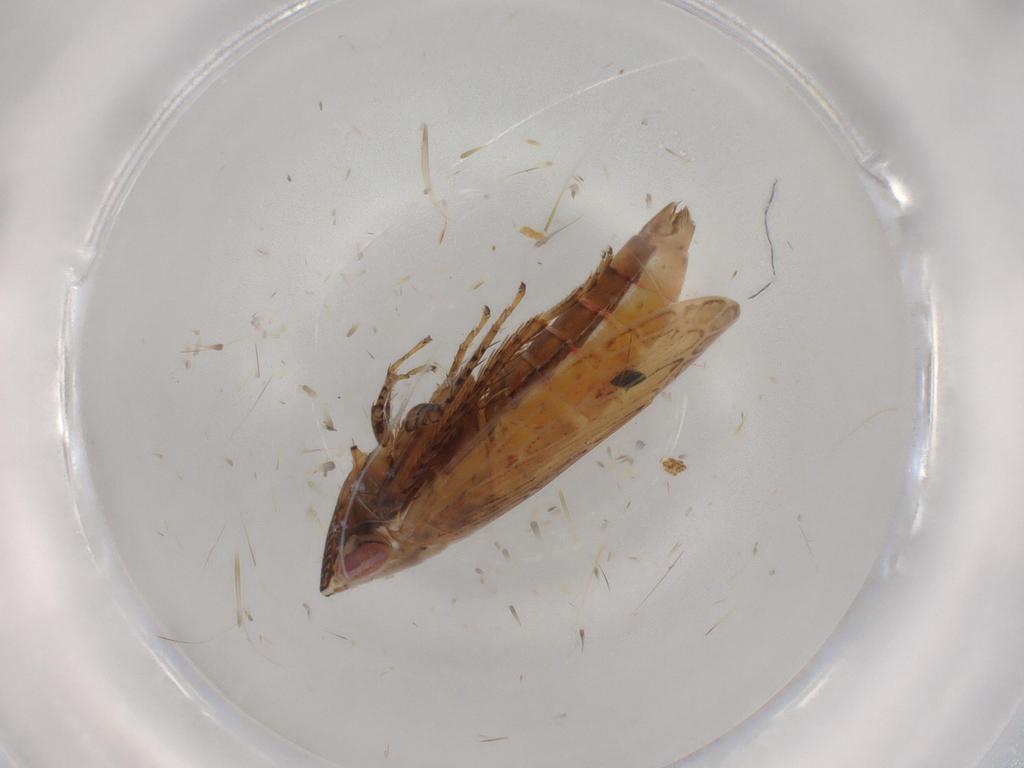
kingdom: Animalia
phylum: Arthropoda
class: Insecta
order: Hemiptera
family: Cicadellidae
